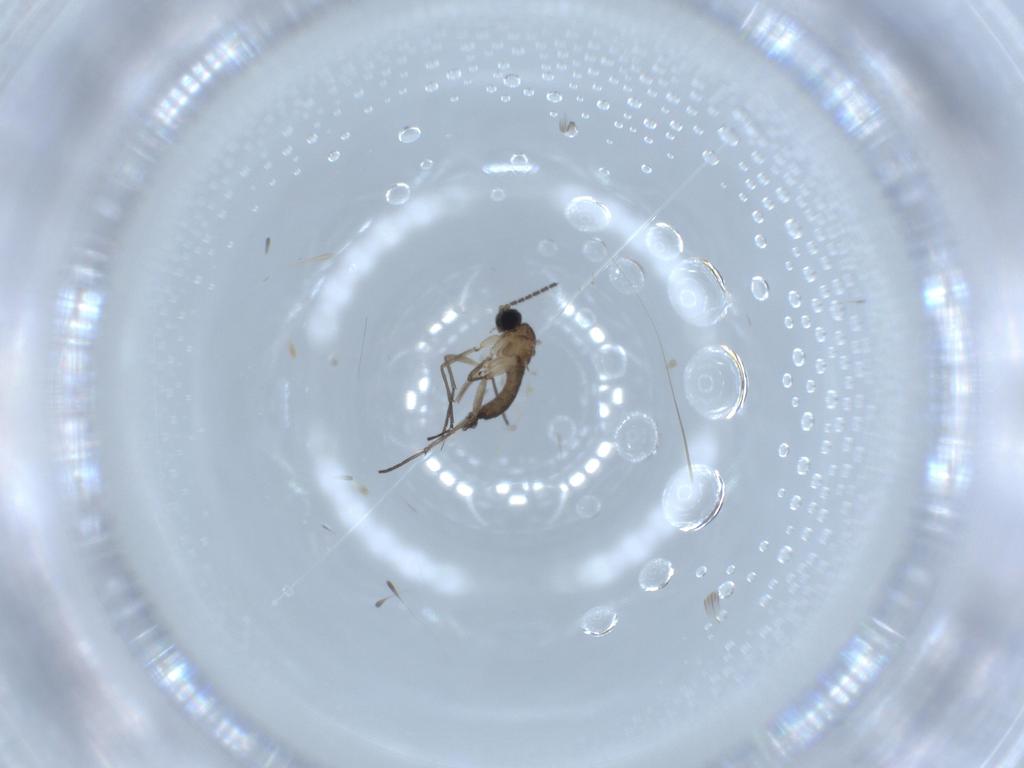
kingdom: Animalia
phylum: Arthropoda
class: Insecta
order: Diptera
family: Sciaridae
